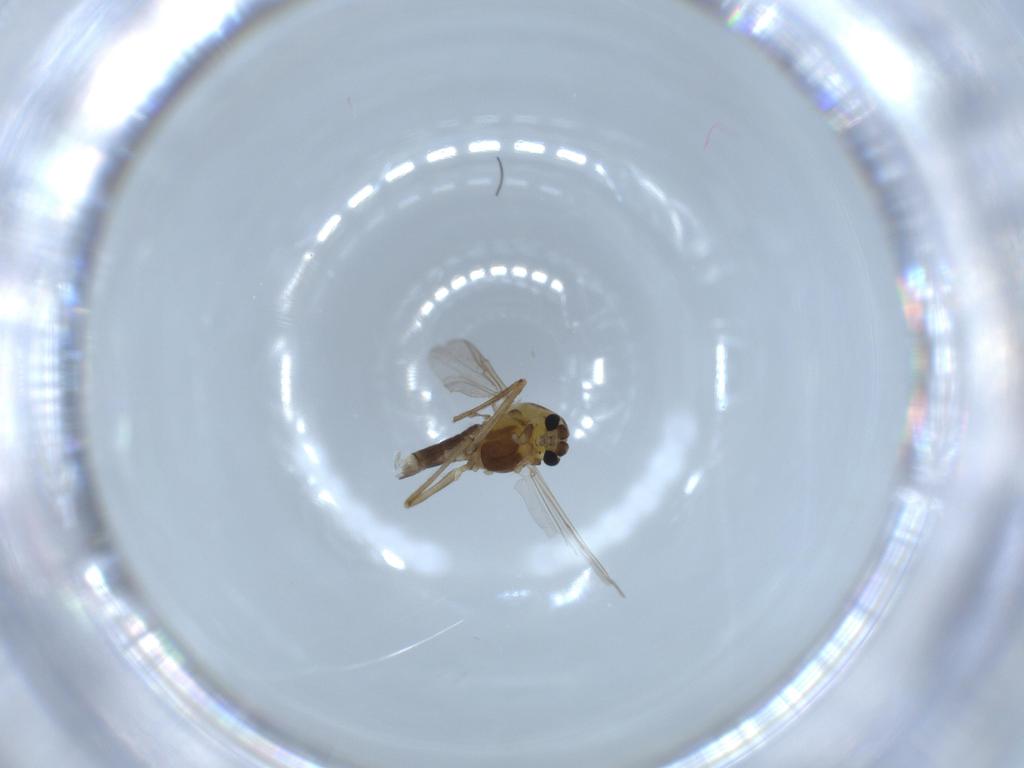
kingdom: Animalia
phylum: Arthropoda
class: Insecta
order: Diptera
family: Chironomidae
